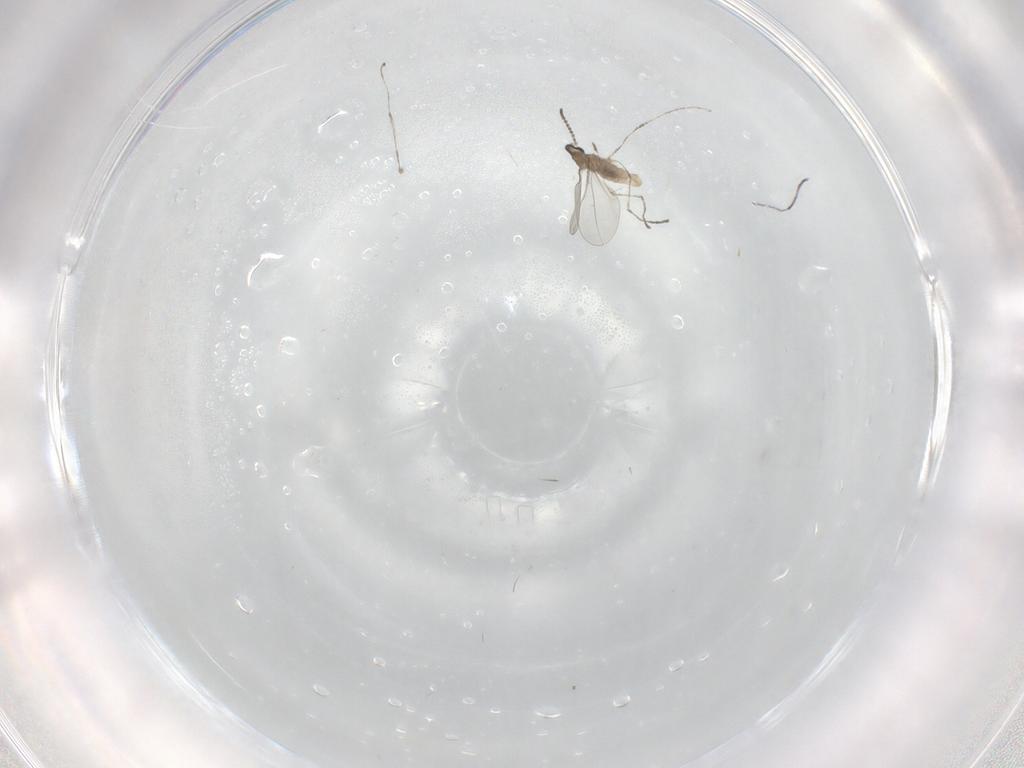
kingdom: Animalia
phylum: Arthropoda
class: Insecta
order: Diptera
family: Cecidomyiidae
